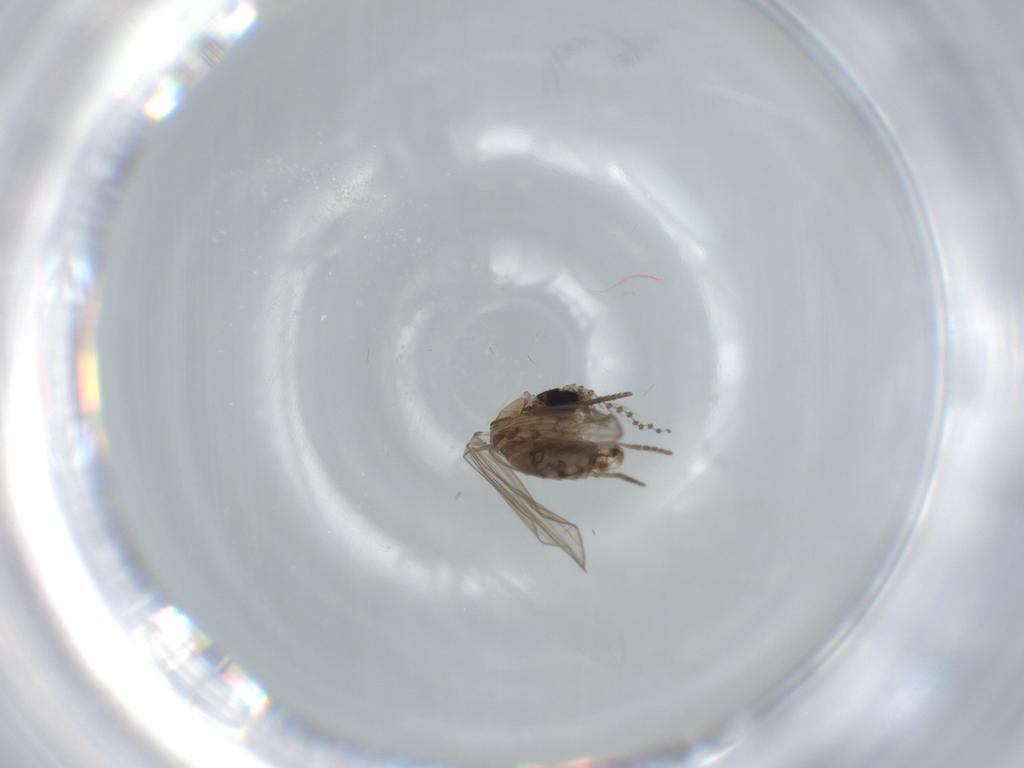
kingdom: Animalia
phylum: Arthropoda
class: Insecta
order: Diptera
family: Psychodidae
